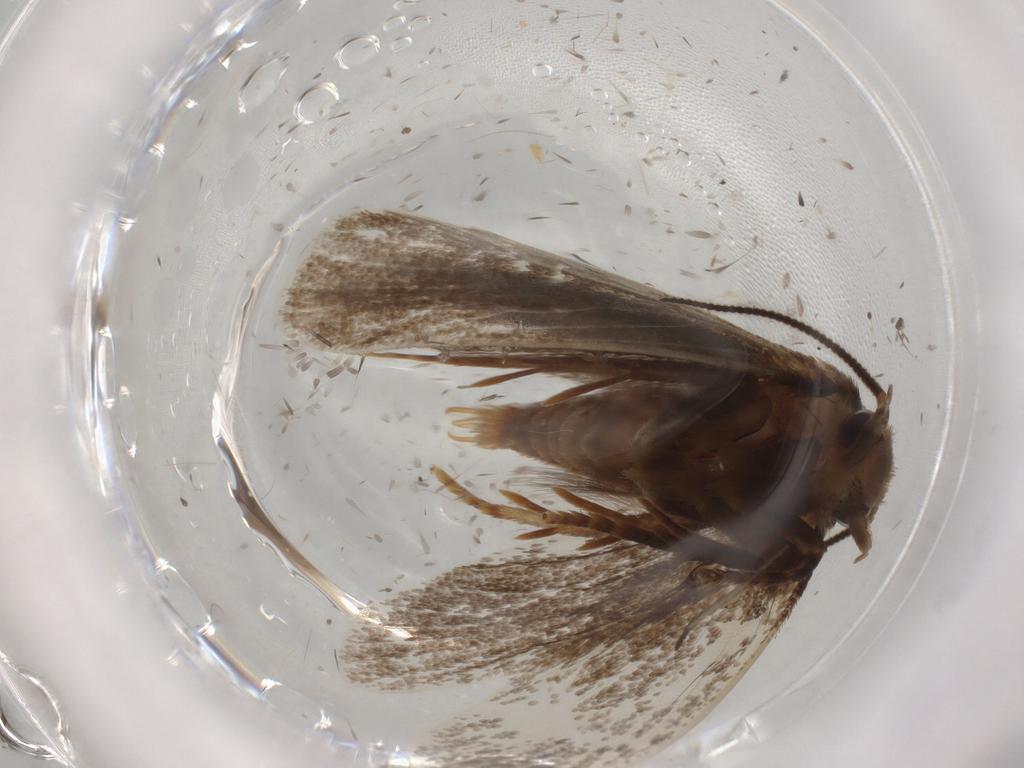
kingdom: Animalia
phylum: Arthropoda
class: Insecta
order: Lepidoptera
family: Tineidae
